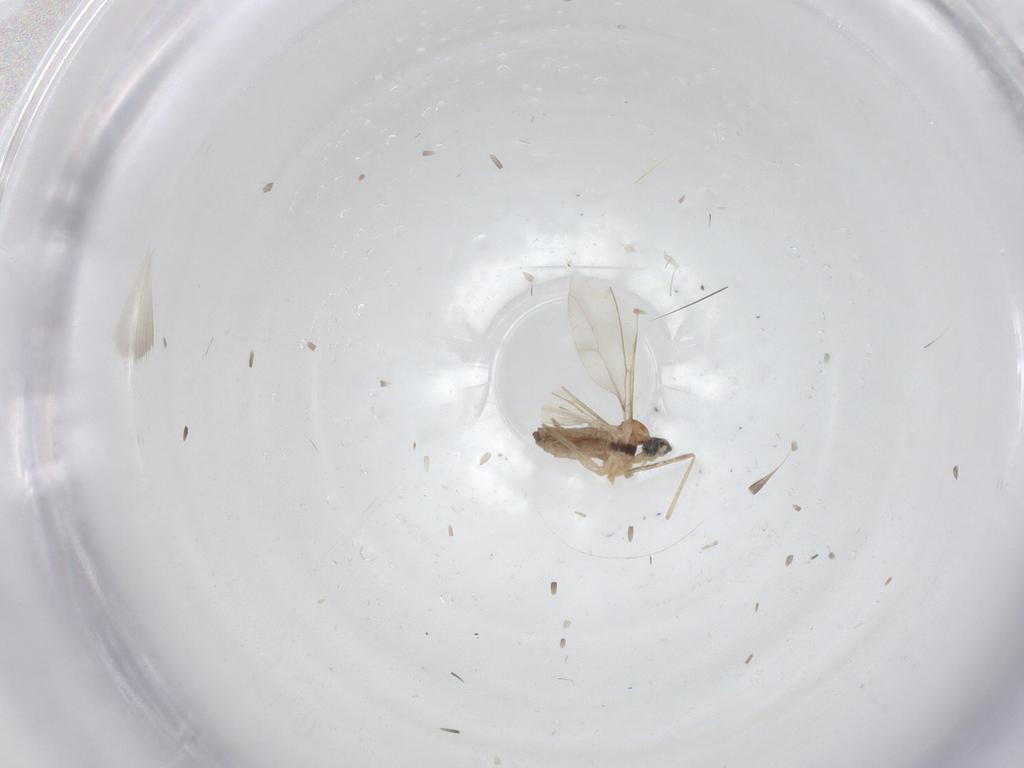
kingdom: Animalia
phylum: Arthropoda
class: Insecta
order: Diptera
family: Cecidomyiidae
